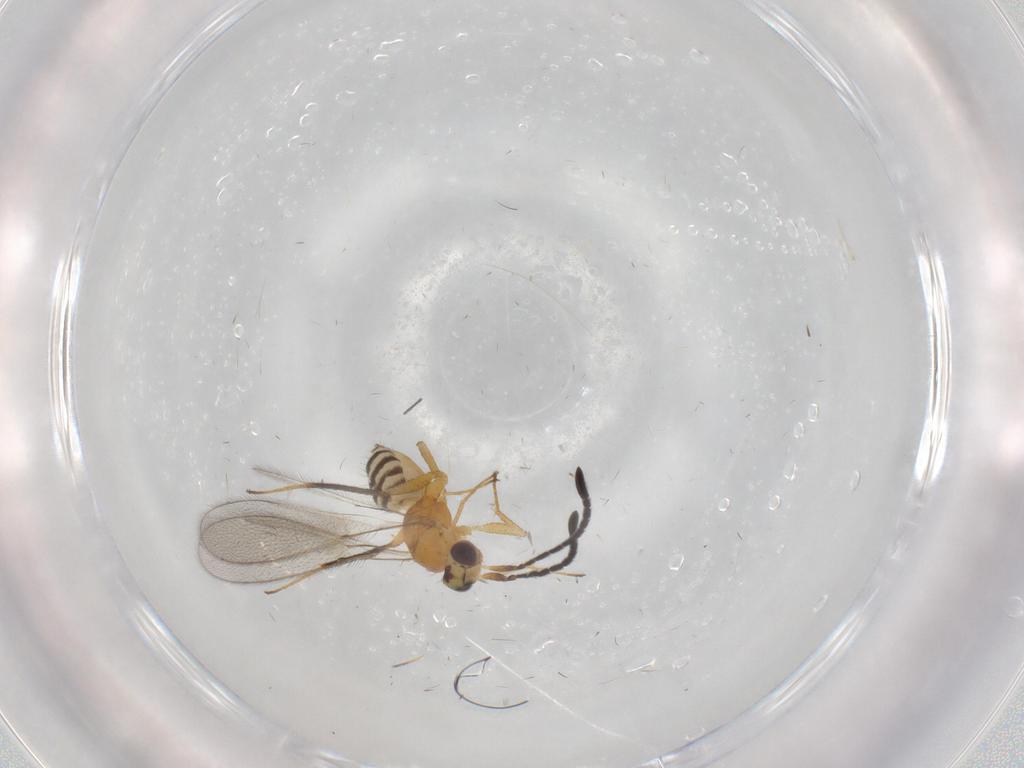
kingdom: Animalia
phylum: Arthropoda
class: Insecta
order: Hymenoptera
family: Mymaridae
